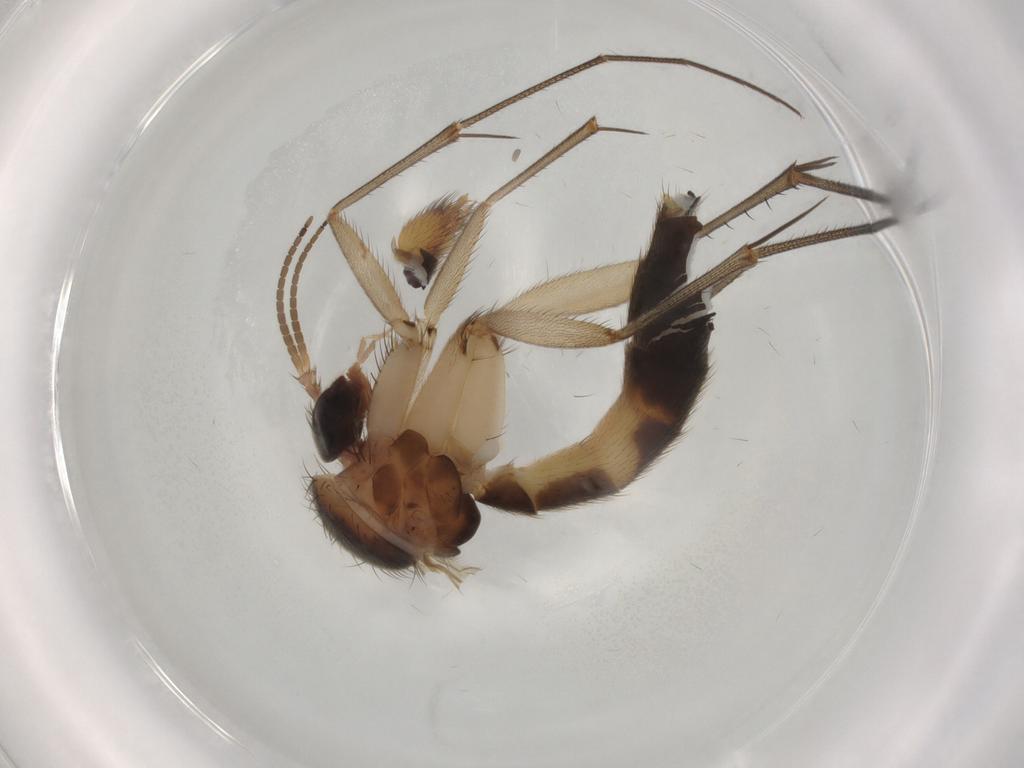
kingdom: Animalia
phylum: Arthropoda
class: Insecta
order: Diptera
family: Mycetophilidae
